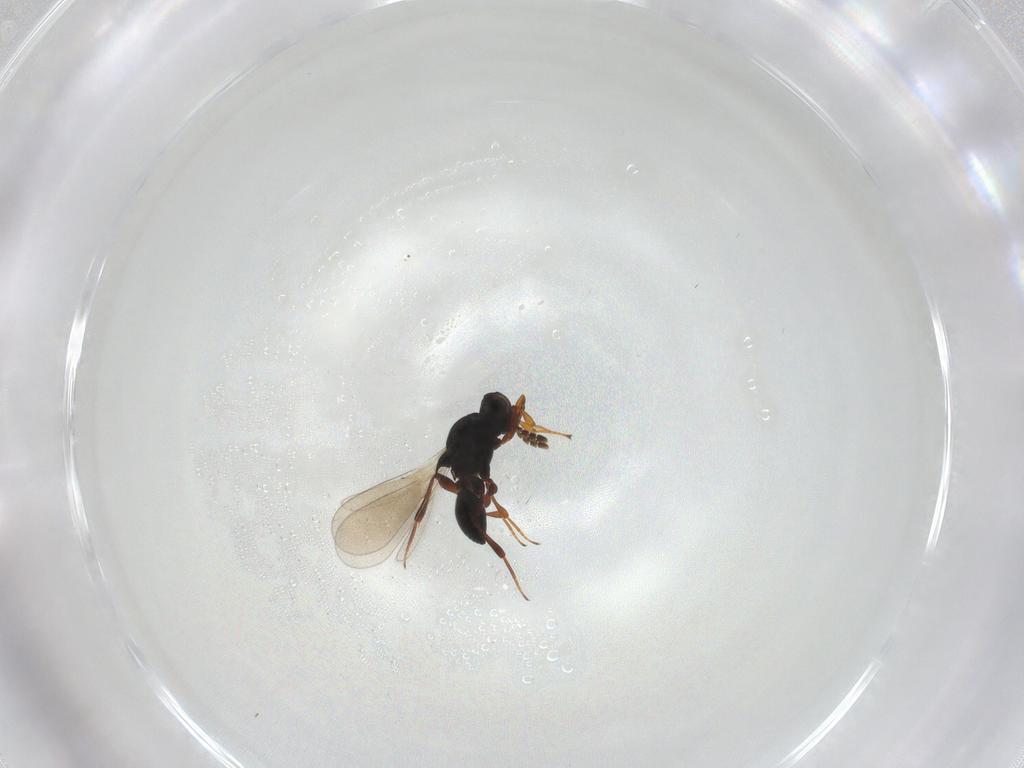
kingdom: Animalia
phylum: Arthropoda
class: Insecta
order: Hymenoptera
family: Platygastridae
